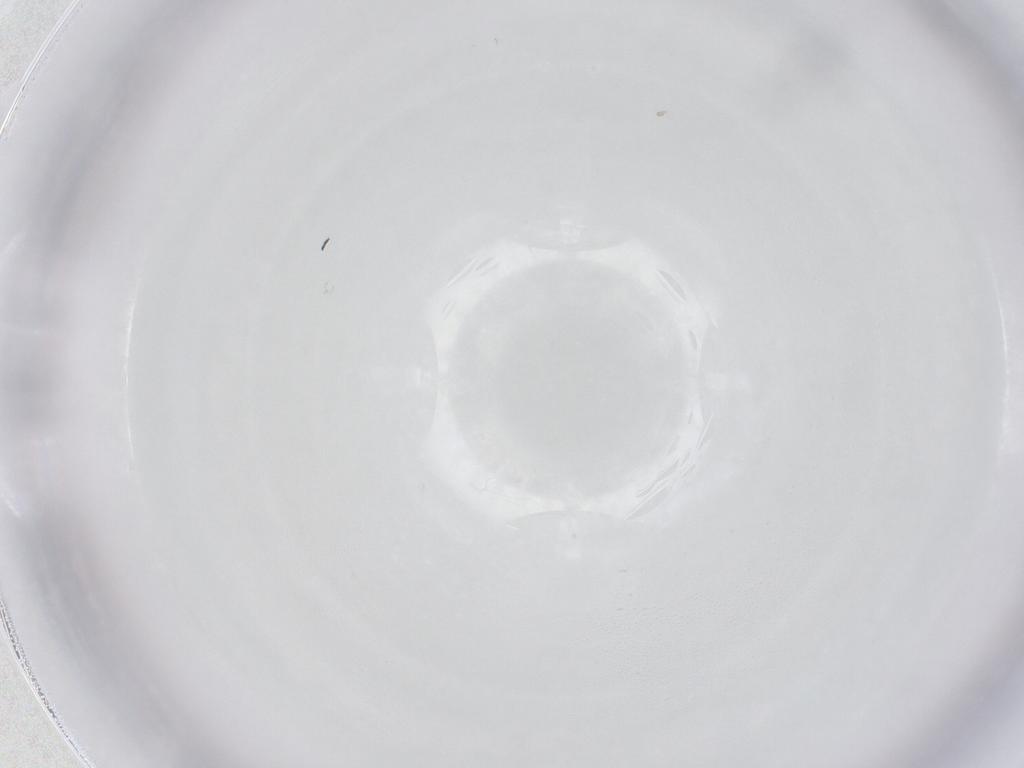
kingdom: Animalia
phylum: Arthropoda
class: Insecta
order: Diptera
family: Chironomidae
